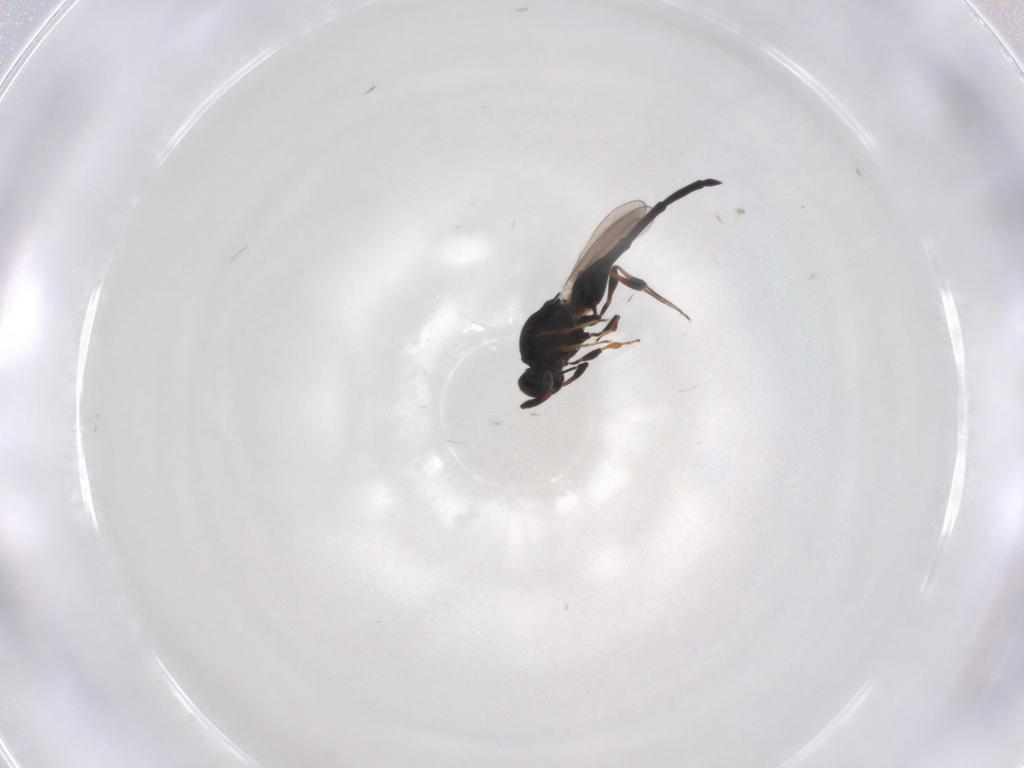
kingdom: Animalia
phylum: Arthropoda
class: Insecta
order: Hymenoptera
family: Platygastridae
